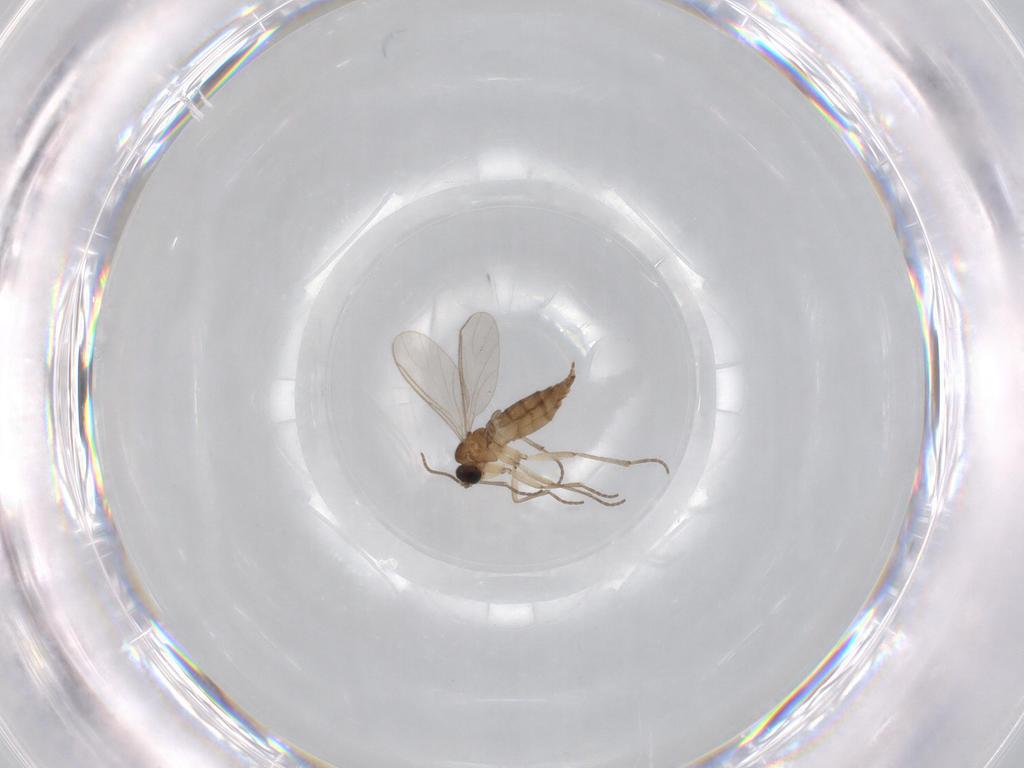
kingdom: Animalia
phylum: Arthropoda
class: Insecta
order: Diptera
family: Sciaridae
